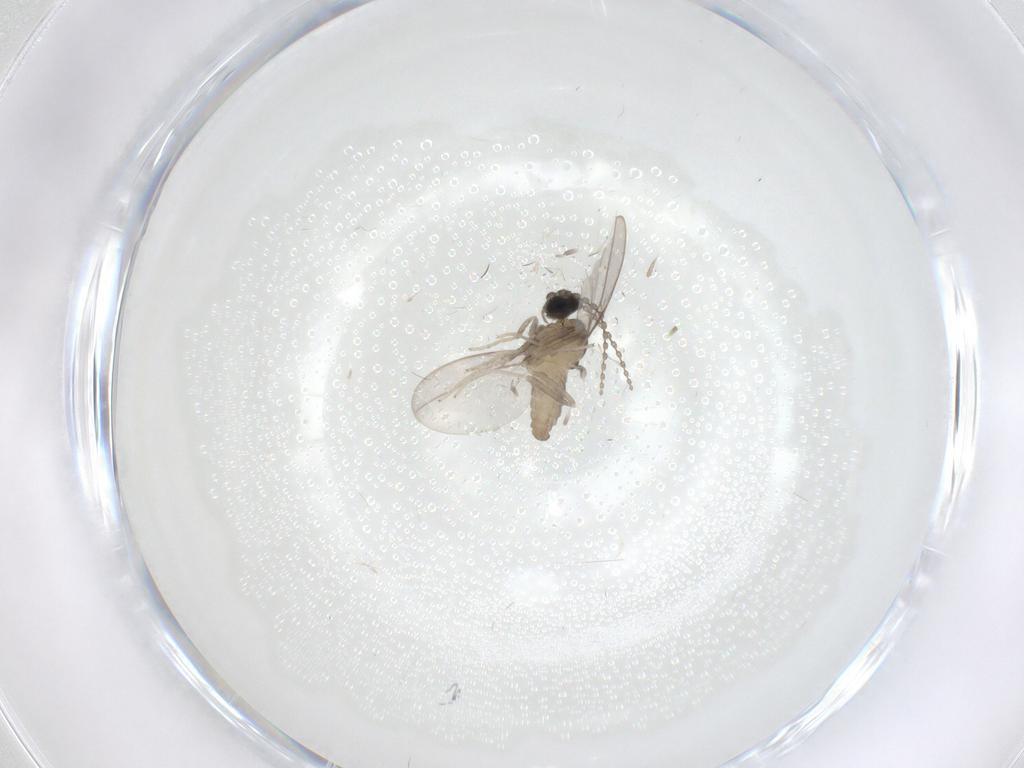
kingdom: Animalia
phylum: Arthropoda
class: Insecta
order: Diptera
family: Cecidomyiidae
